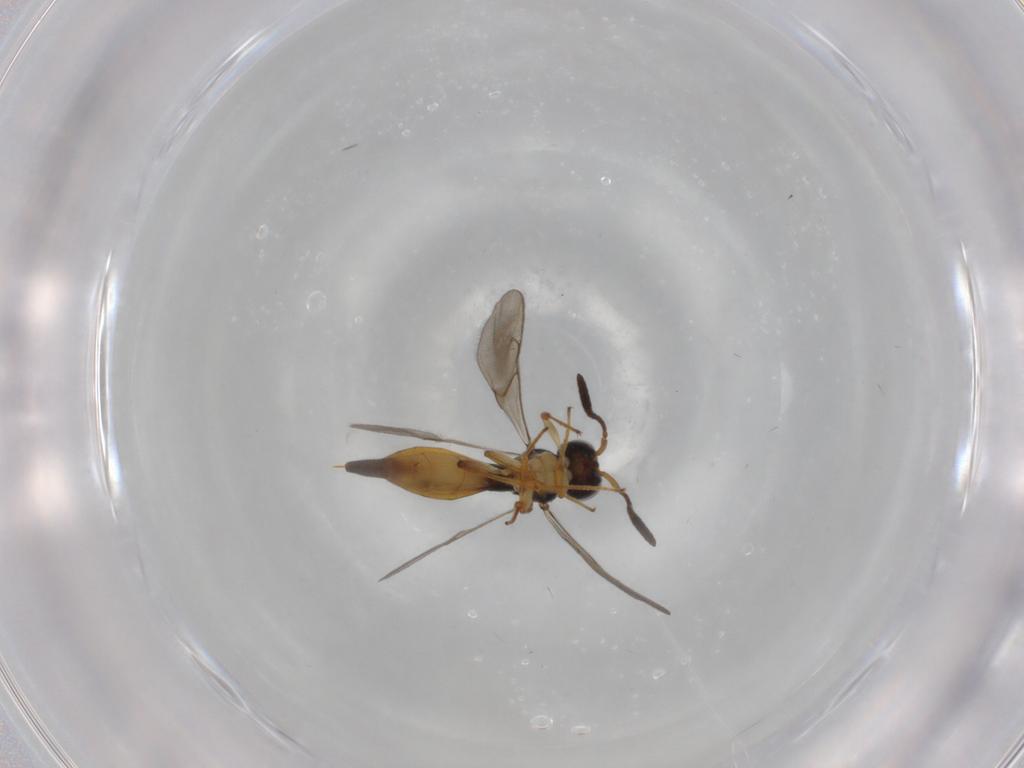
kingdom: Animalia
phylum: Arthropoda
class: Insecta
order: Hymenoptera
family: Scelionidae
